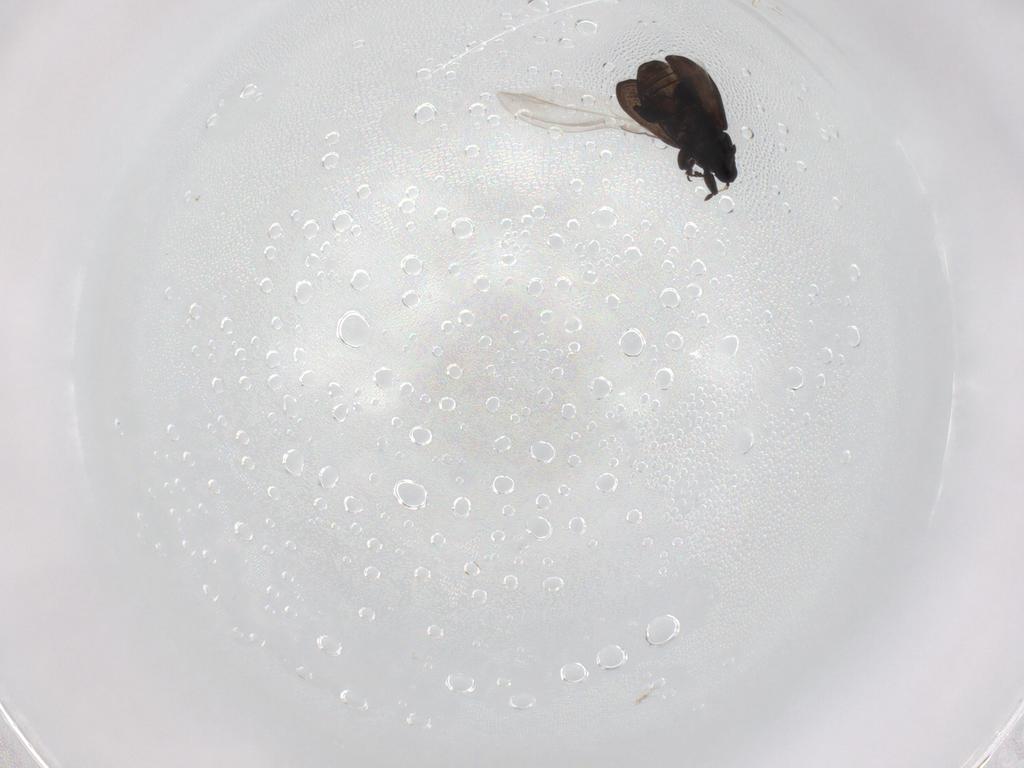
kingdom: Animalia
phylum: Arthropoda
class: Insecta
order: Coleoptera
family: Curculionidae
